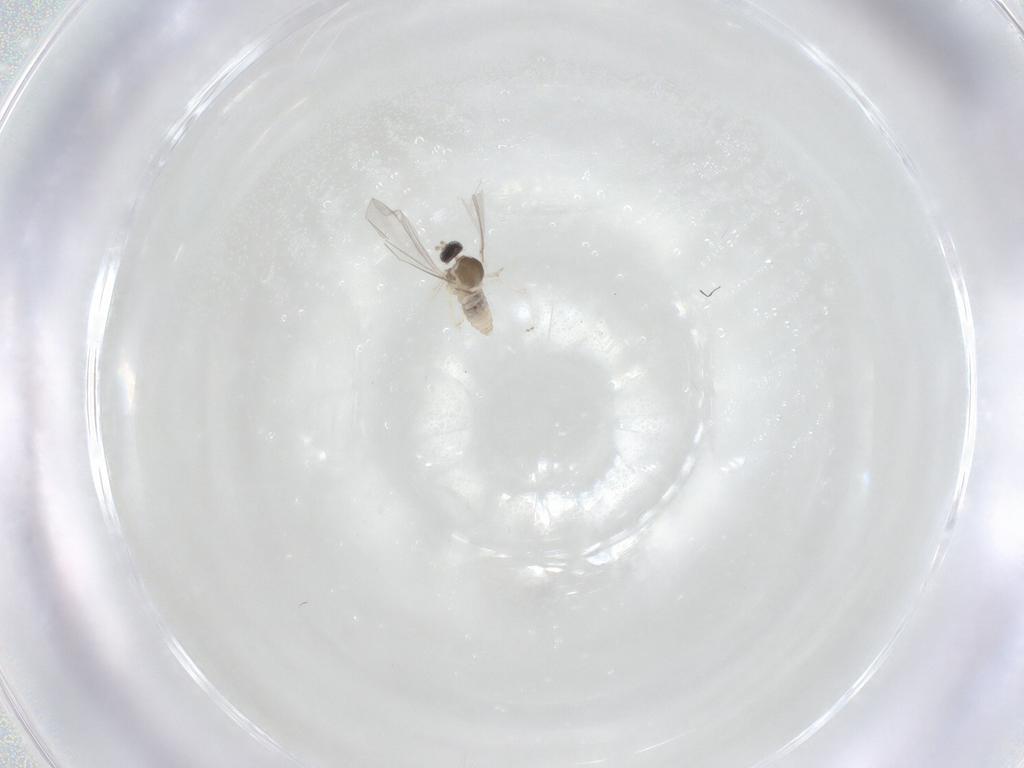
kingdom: Animalia
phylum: Arthropoda
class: Insecta
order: Diptera
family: Cecidomyiidae
